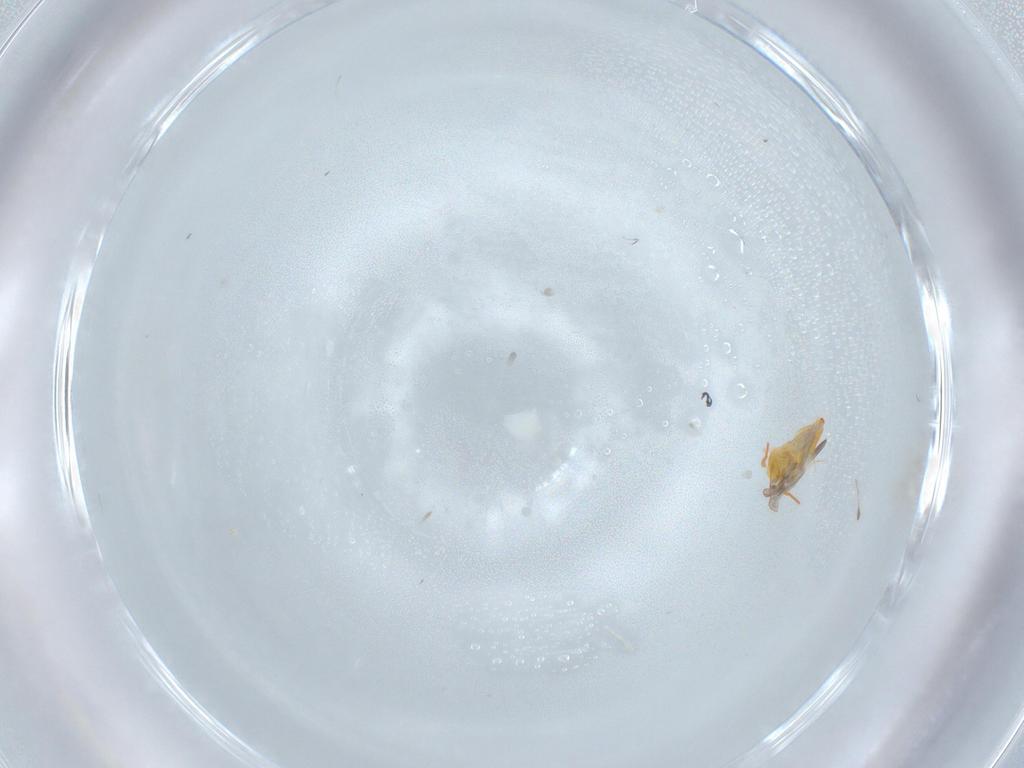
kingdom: Animalia
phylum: Arthropoda
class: Insecta
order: Hemiptera
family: Aleyrodidae
